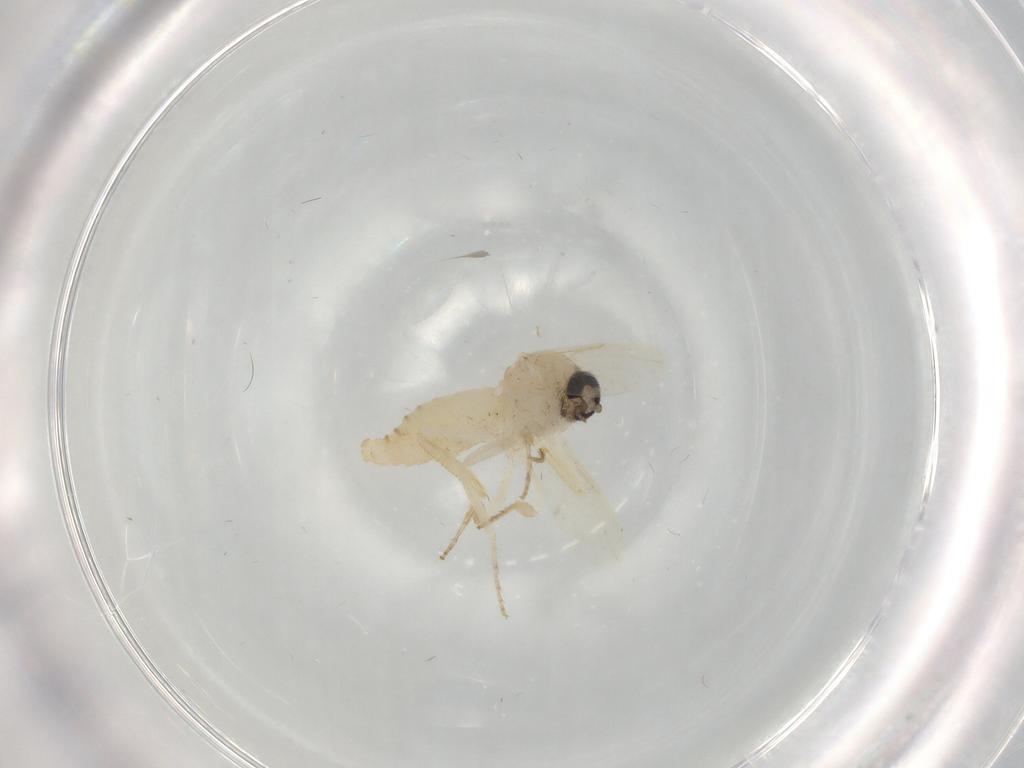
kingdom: Animalia
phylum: Arthropoda
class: Insecta
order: Diptera
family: Ceratopogonidae
